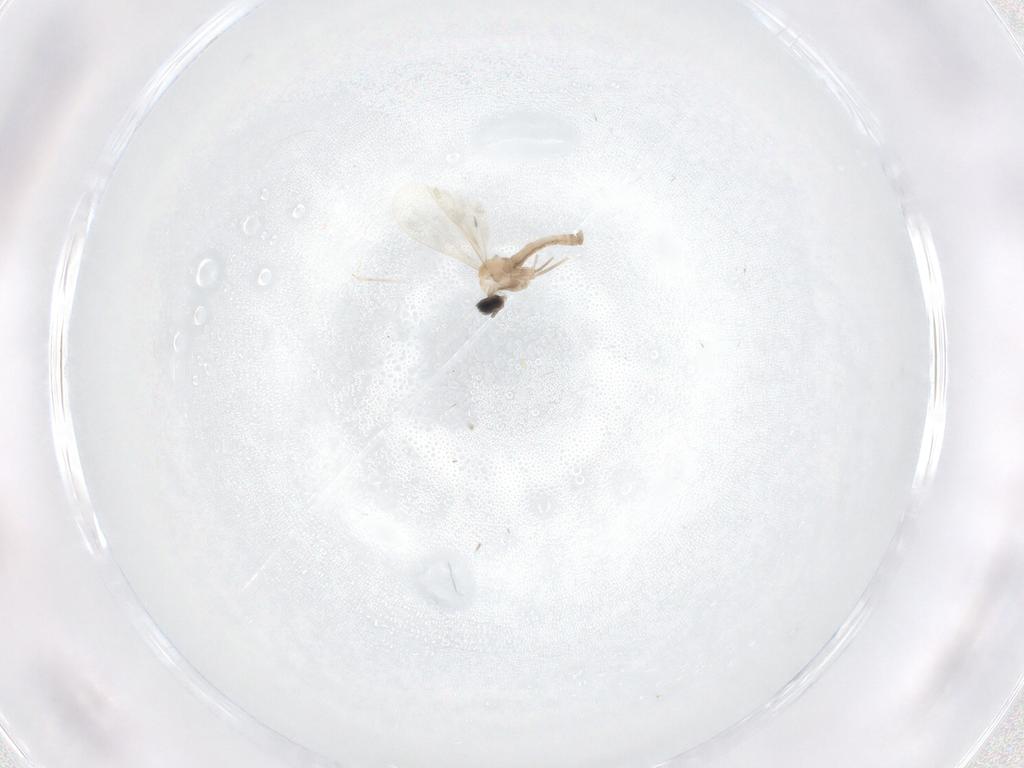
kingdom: Animalia
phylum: Arthropoda
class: Insecta
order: Diptera
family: Cecidomyiidae
